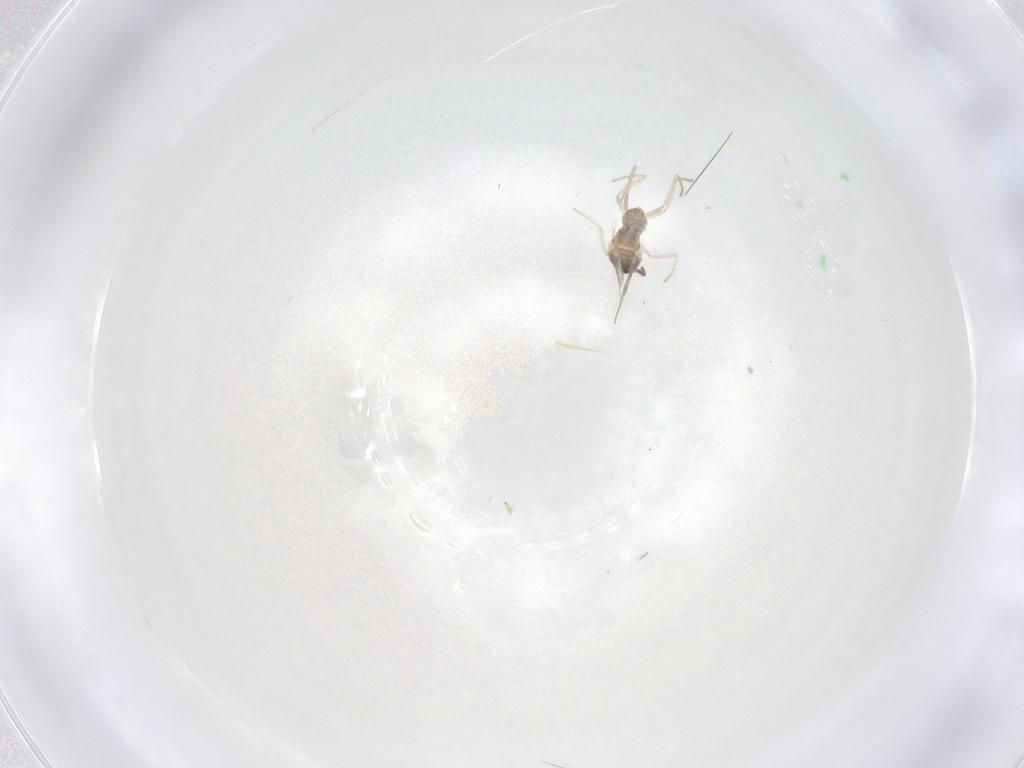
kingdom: Animalia
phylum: Arthropoda
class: Insecta
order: Diptera
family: Cecidomyiidae
